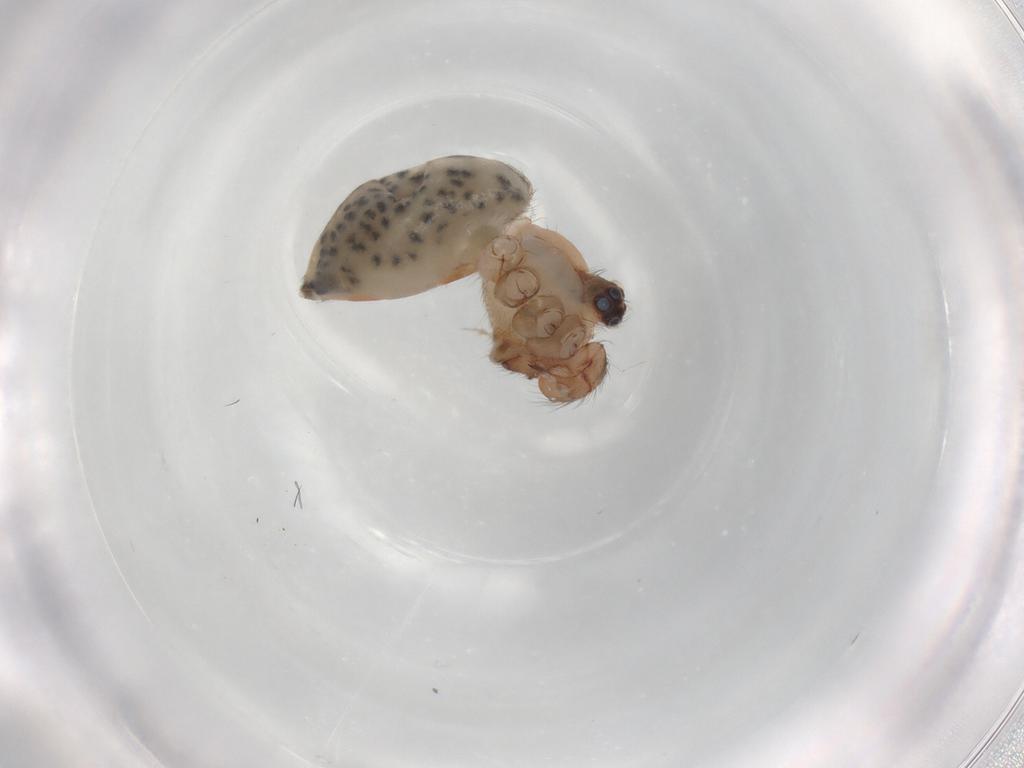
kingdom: Animalia
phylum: Arthropoda
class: Arachnida
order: Araneae
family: Pholcidae
